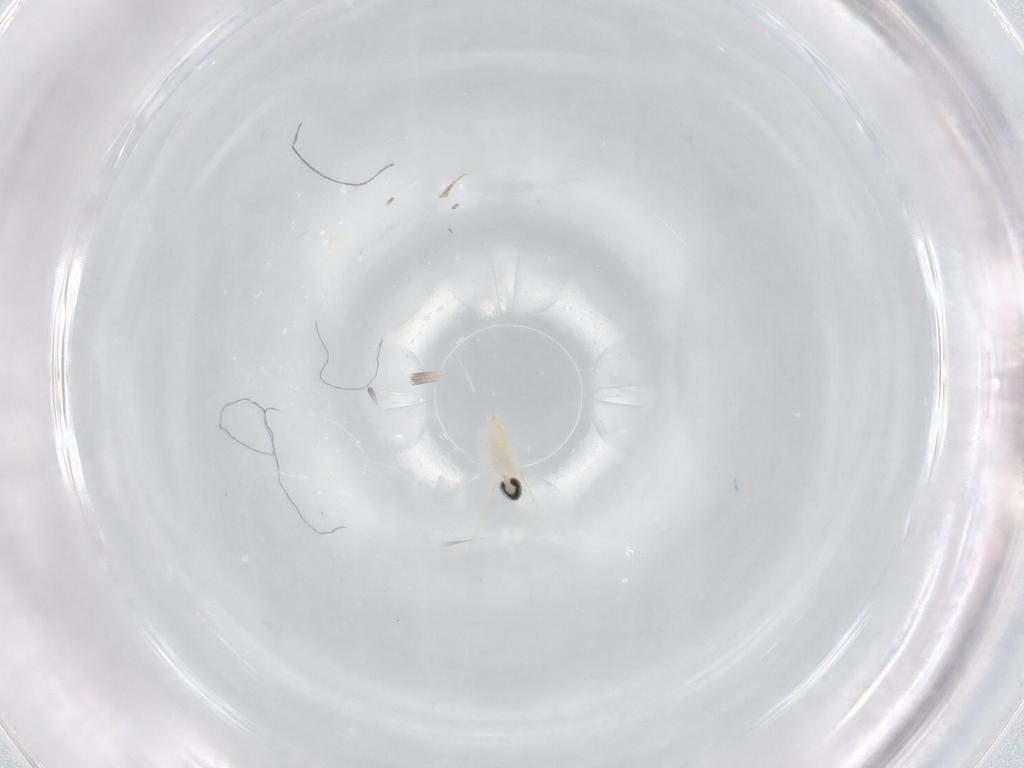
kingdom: Animalia
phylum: Arthropoda
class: Insecta
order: Diptera
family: Cecidomyiidae
